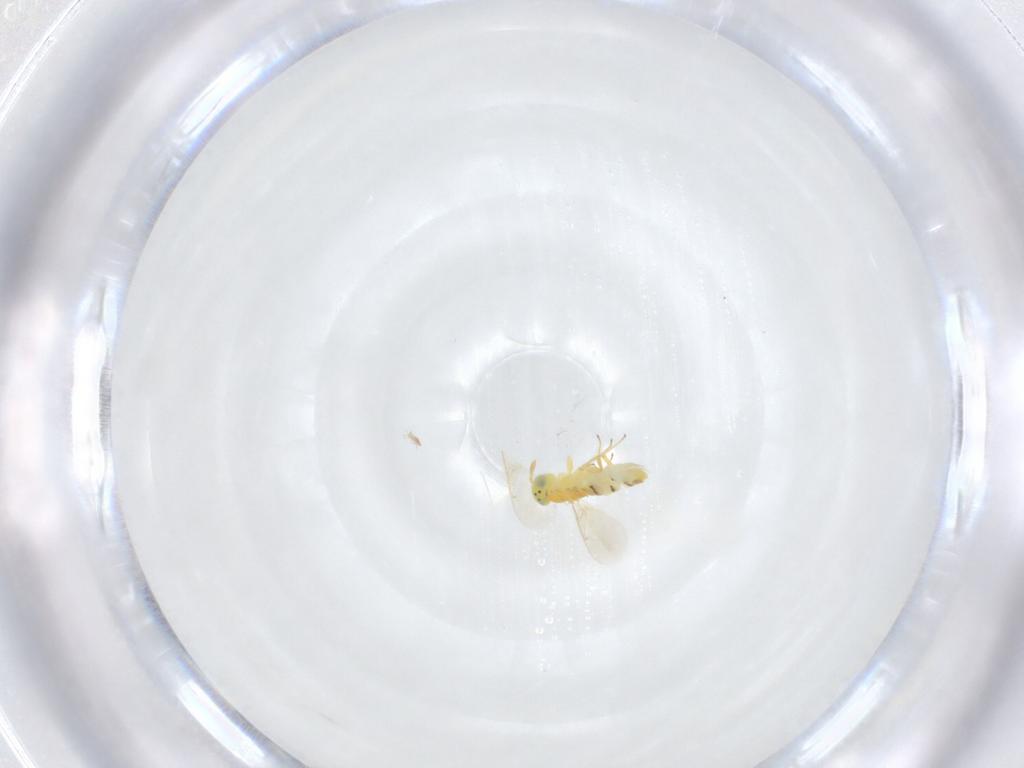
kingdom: Animalia
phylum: Arthropoda
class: Insecta
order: Hymenoptera
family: Aphelinidae
